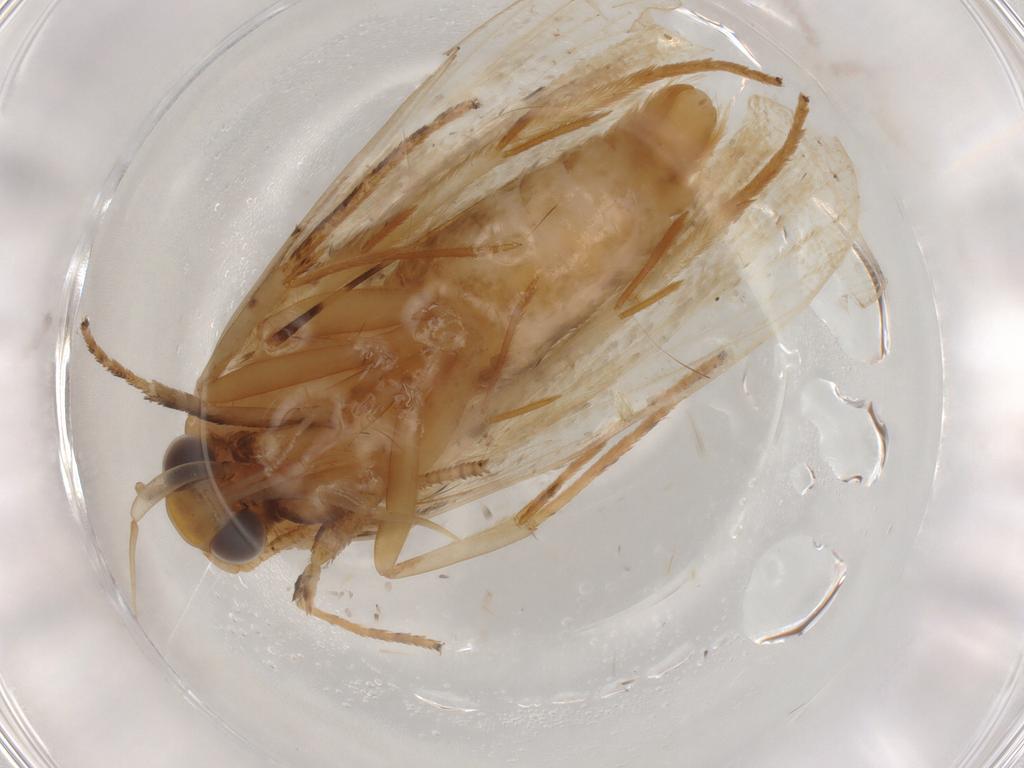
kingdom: Animalia
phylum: Arthropoda
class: Insecta
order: Lepidoptera
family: Depressariidae
